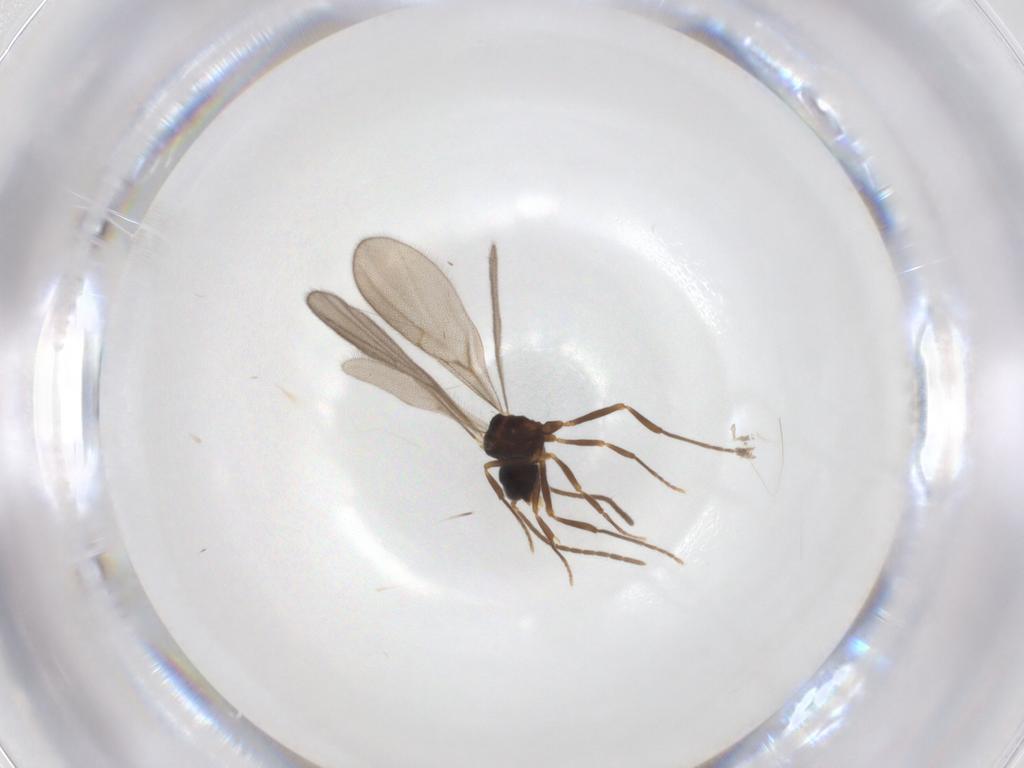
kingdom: Animalia
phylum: Arthropoda
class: Insecta
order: Hymenoptera
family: Formicidae
